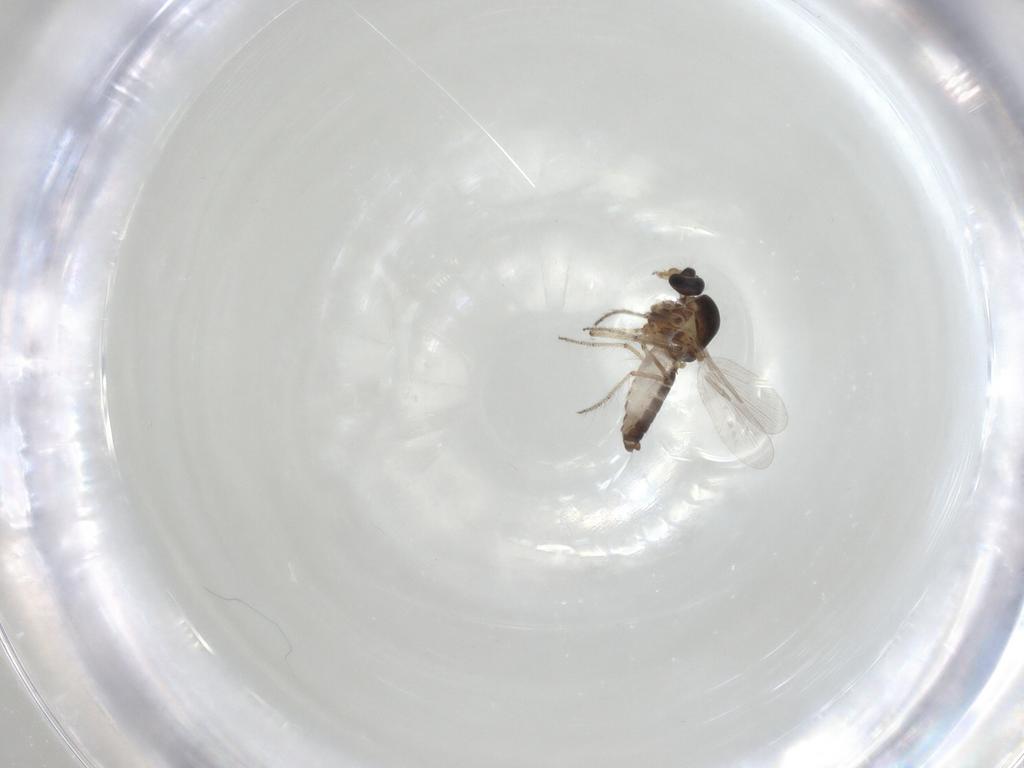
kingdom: Animalia
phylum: Arthropoda
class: Insecta
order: Diptera
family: Ceratopogonidae
